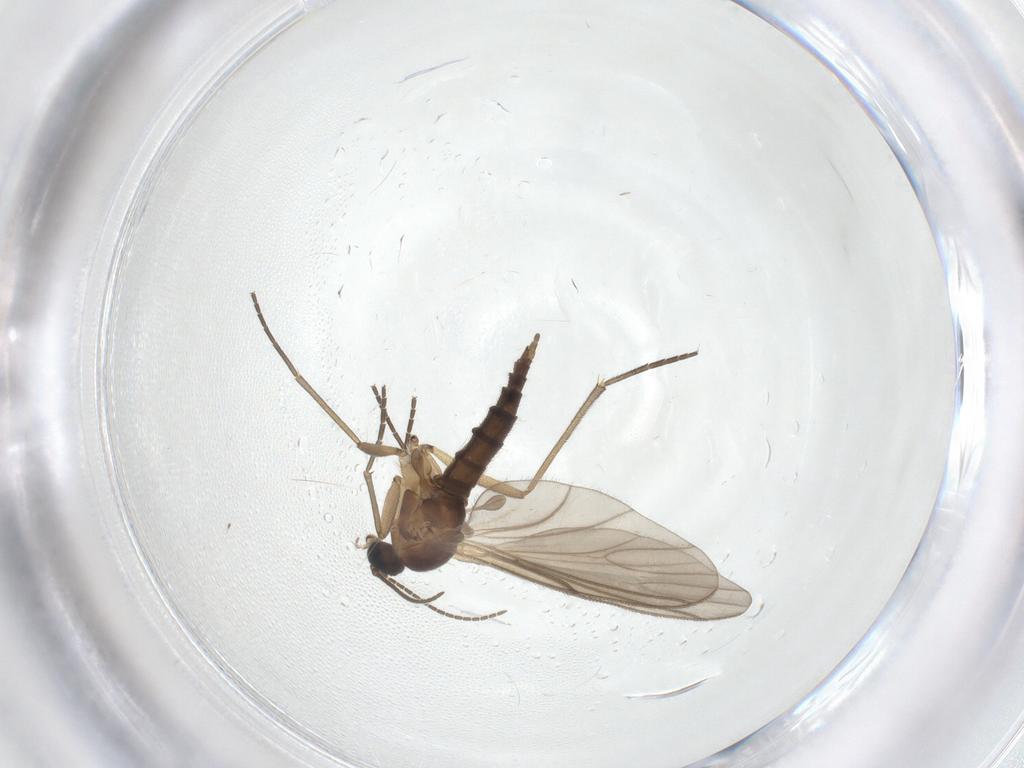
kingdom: Animalia
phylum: Arthropoda
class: Insecta
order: Diptera
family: Sciaridae
